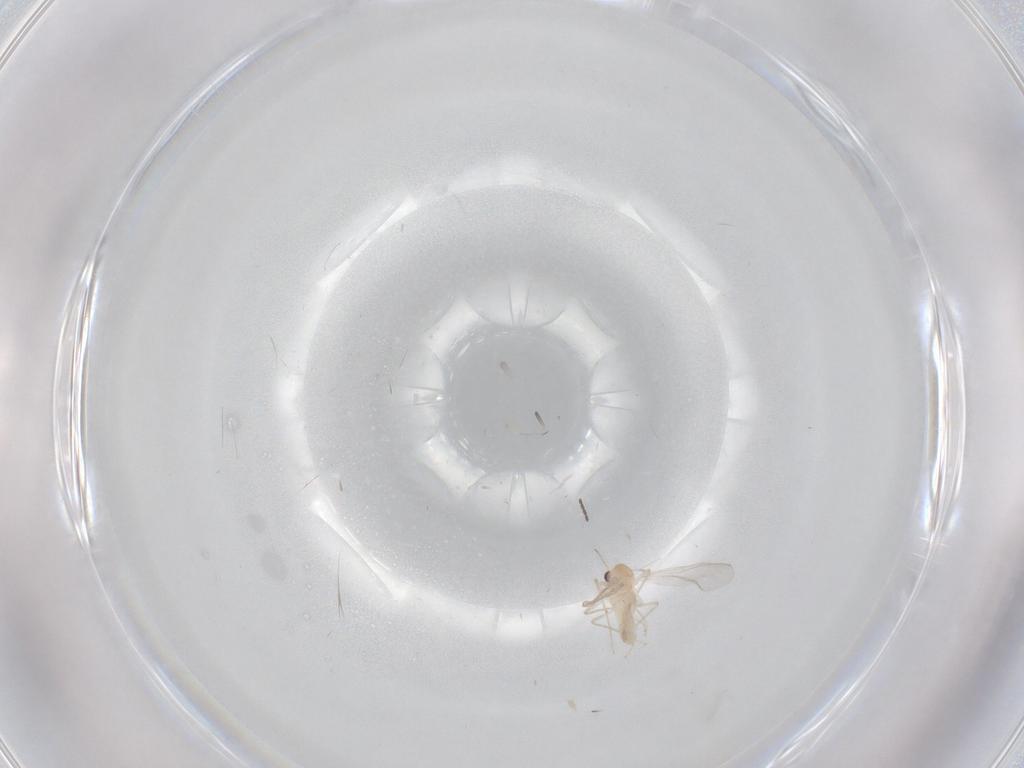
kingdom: Animalia
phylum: Arthropoda
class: Insecta
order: Diptera
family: Chironomidae
